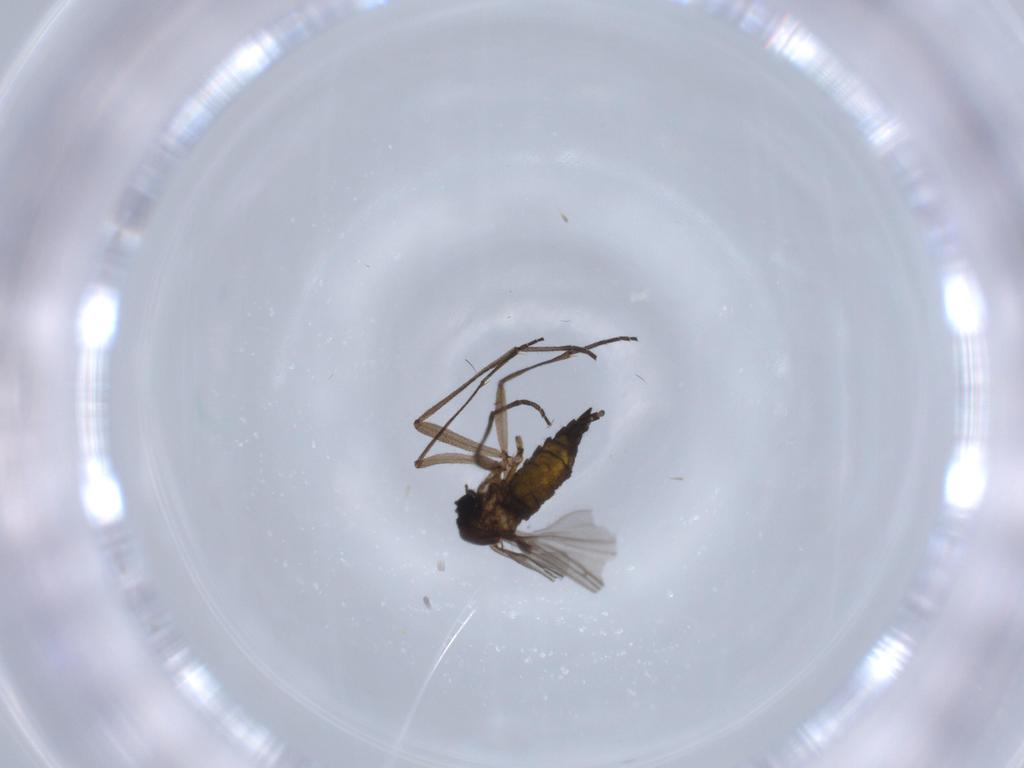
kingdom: Animalia
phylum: Arthropoda
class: Insecta
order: Diptera
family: Sciaridae
